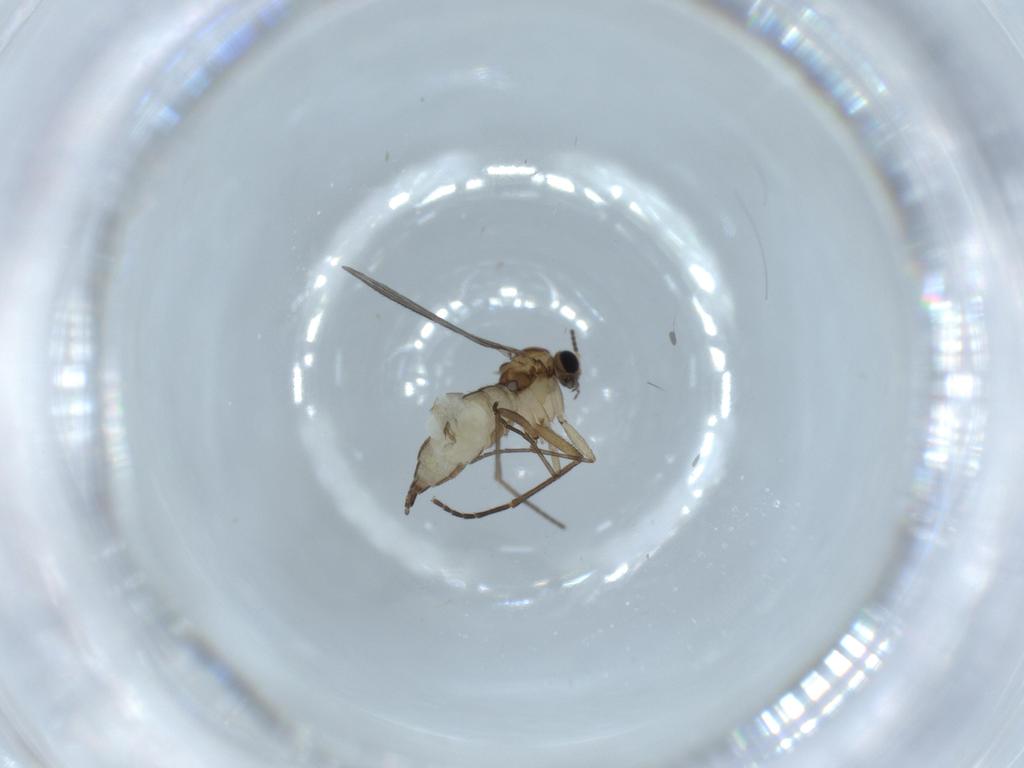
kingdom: Animalia
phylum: Arthropoda
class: Insecta
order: Diptera
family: Sciaridae
